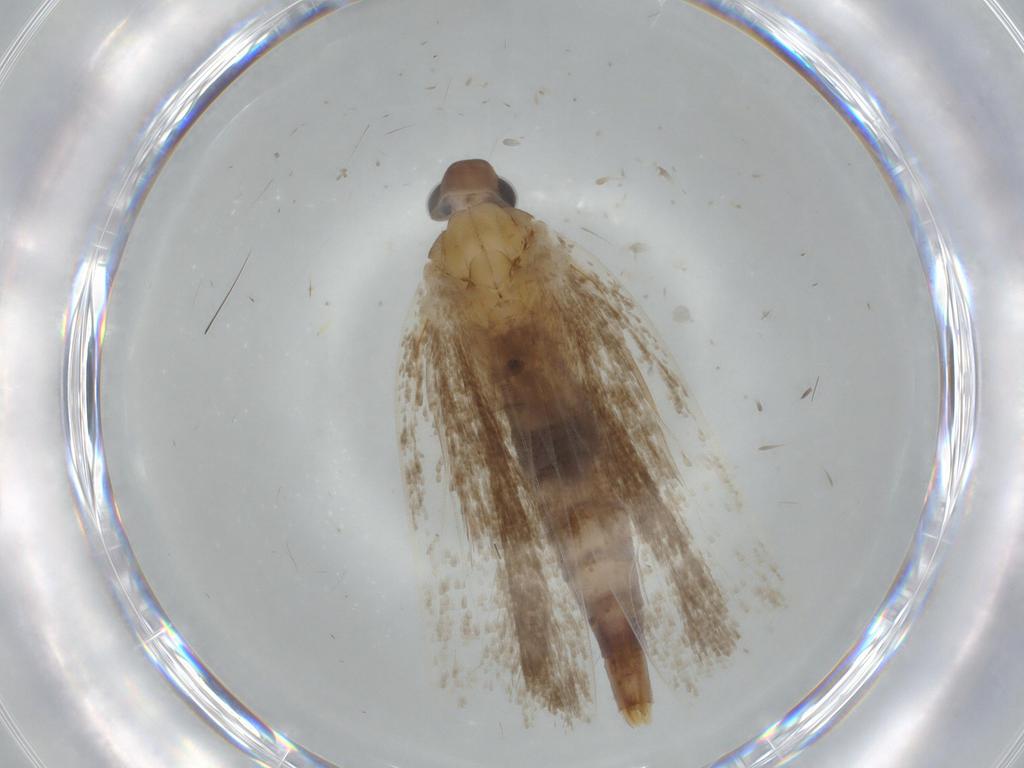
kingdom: Animalia
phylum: Arthropoda
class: Insecta
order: Lepidoptera
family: Gelechiidae
